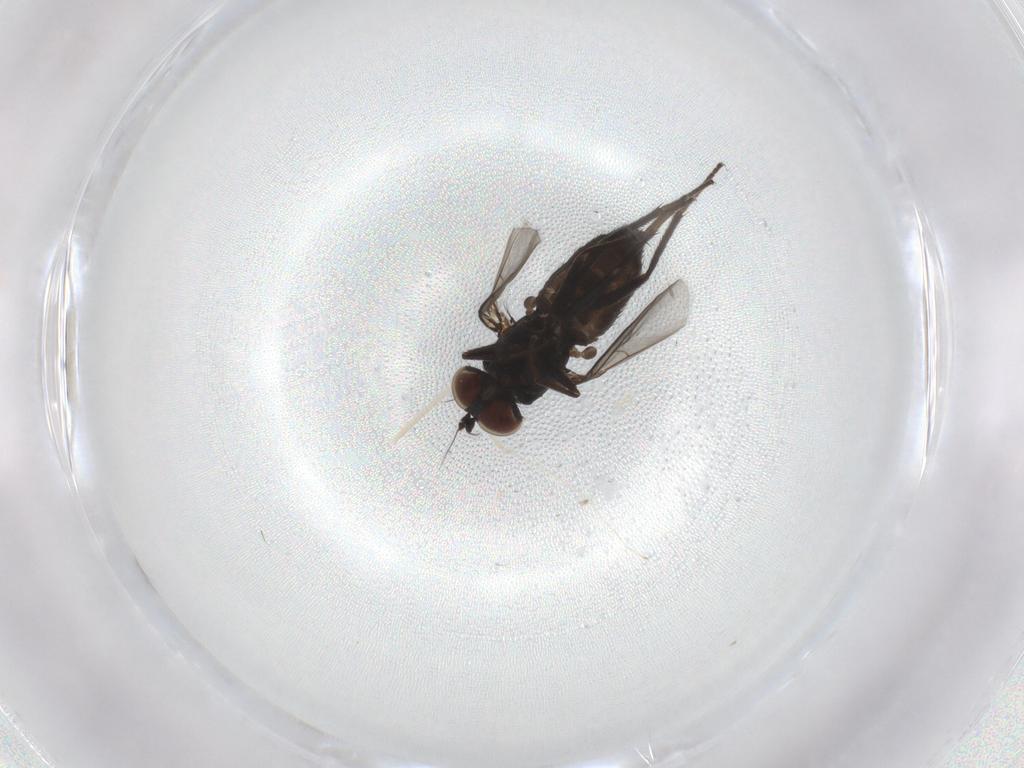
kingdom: Animalia
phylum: Arthropoda
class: Insecta
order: Diptera
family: Cecidomyiidae
